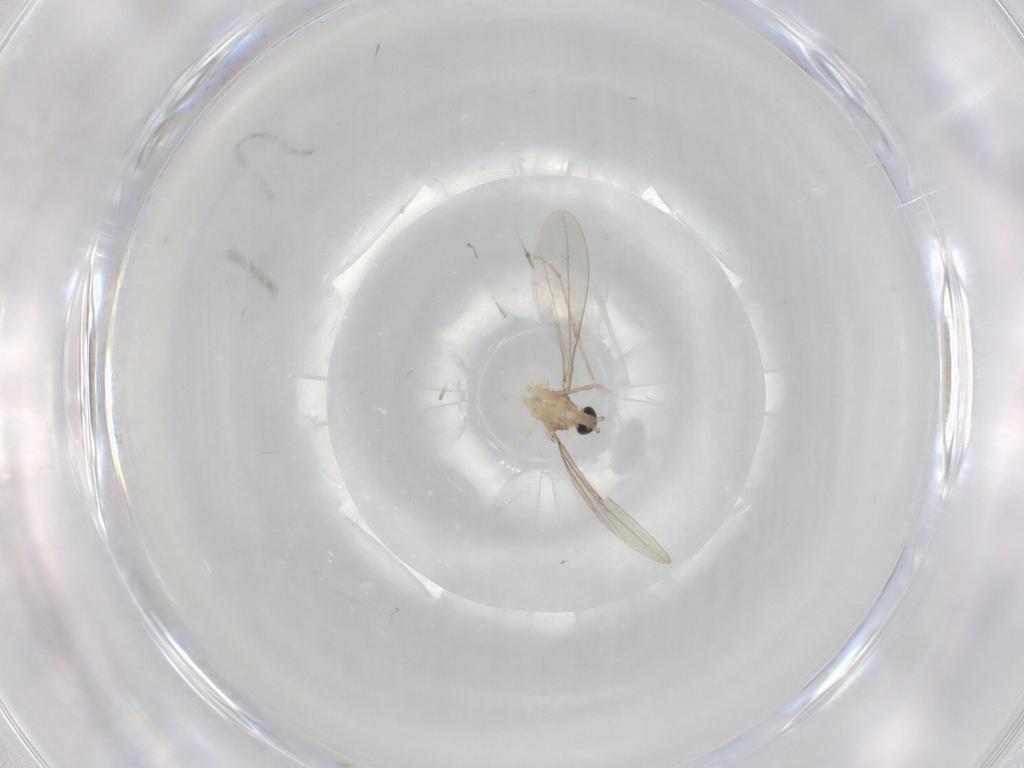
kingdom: Animalia
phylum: Arthropoda
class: Insecta
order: Diptera
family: Cecidomyiidae
